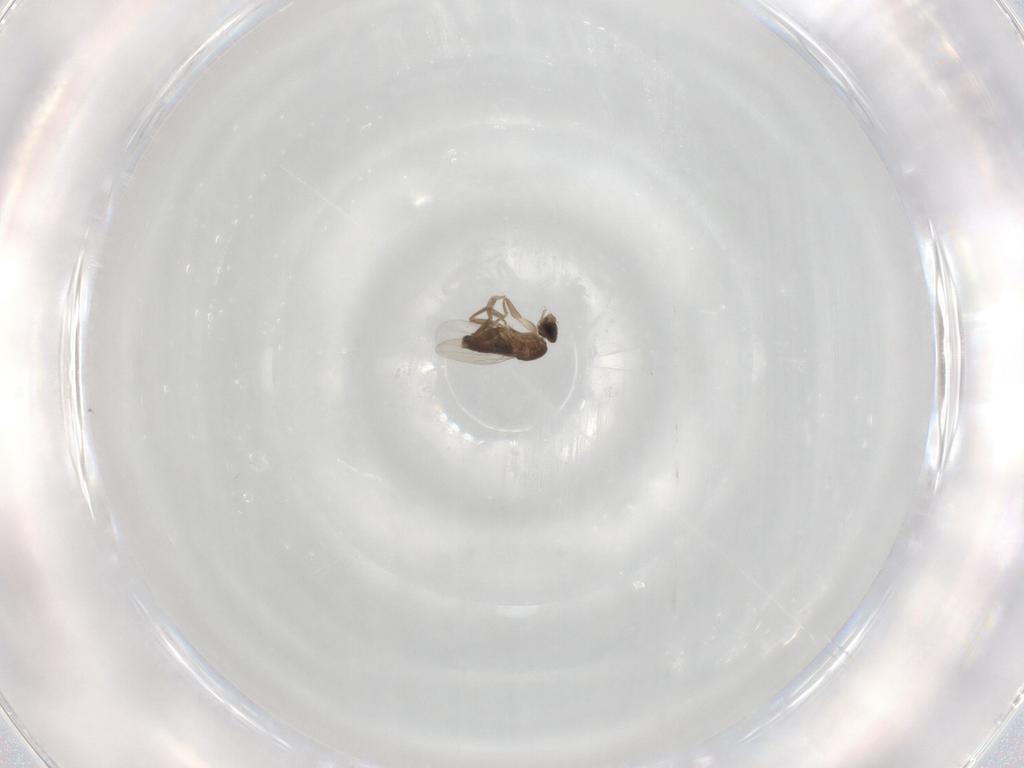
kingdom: Animalia
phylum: Arthropoda
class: Insecta
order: Diptera
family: Phoridae
